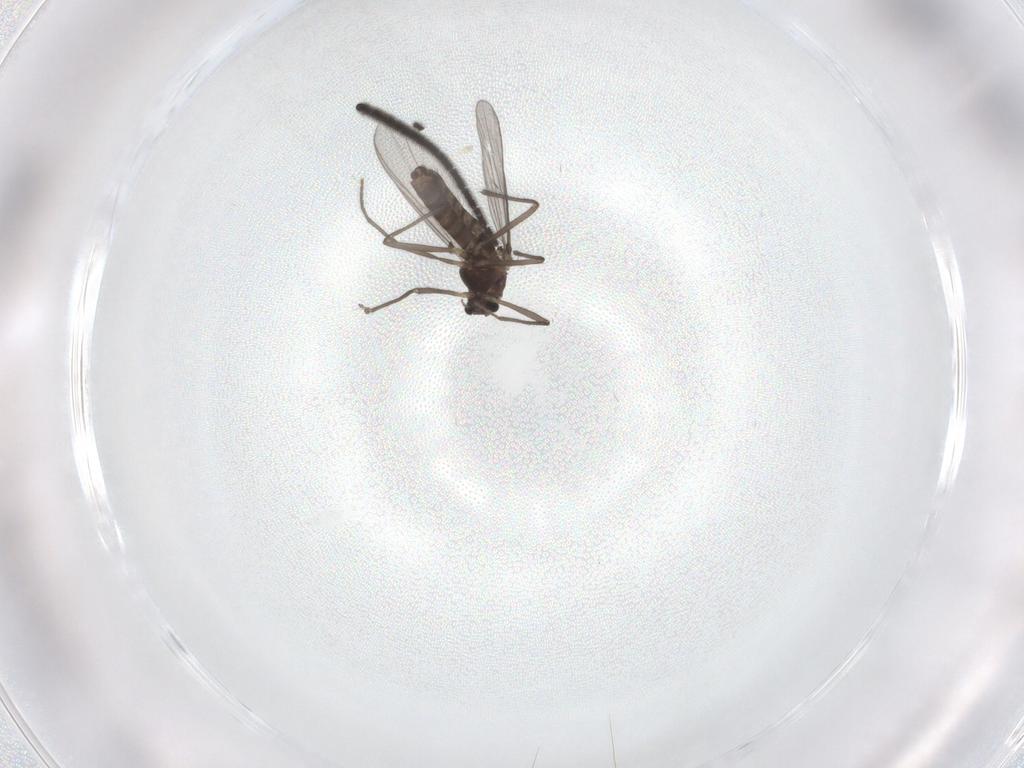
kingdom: Animalia
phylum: Arthropoda
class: Insecta
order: Diptera
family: Chironomidae
